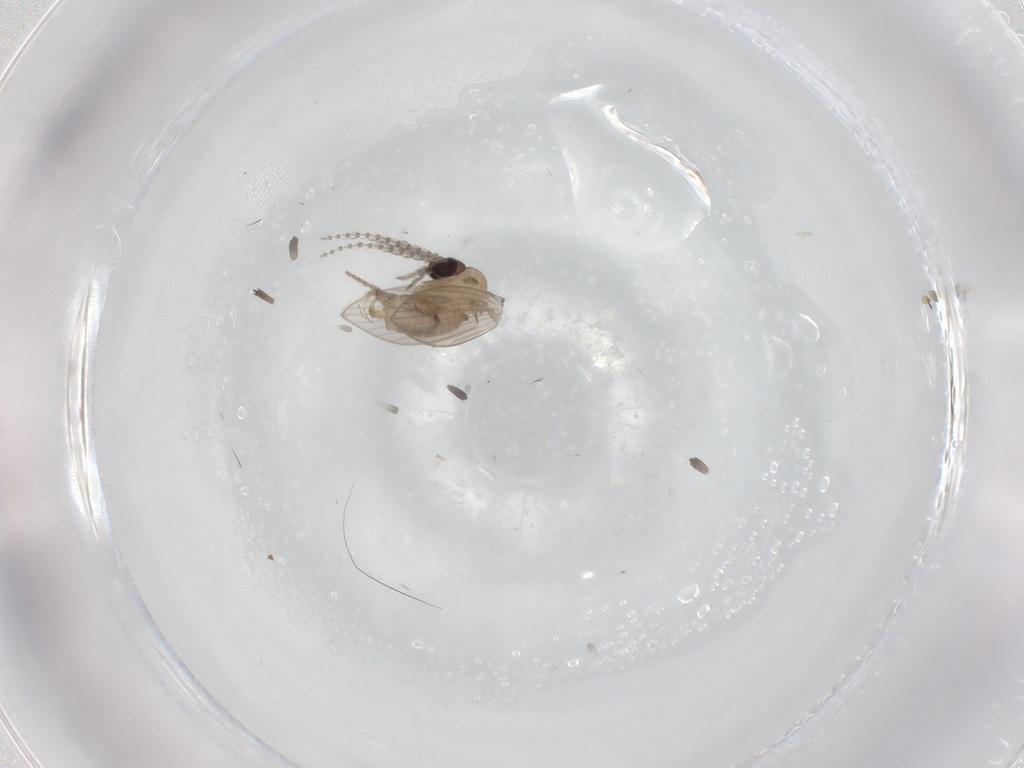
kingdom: Animalia
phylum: Arthropoda
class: Insecta
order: Diptera
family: Psychodidae
